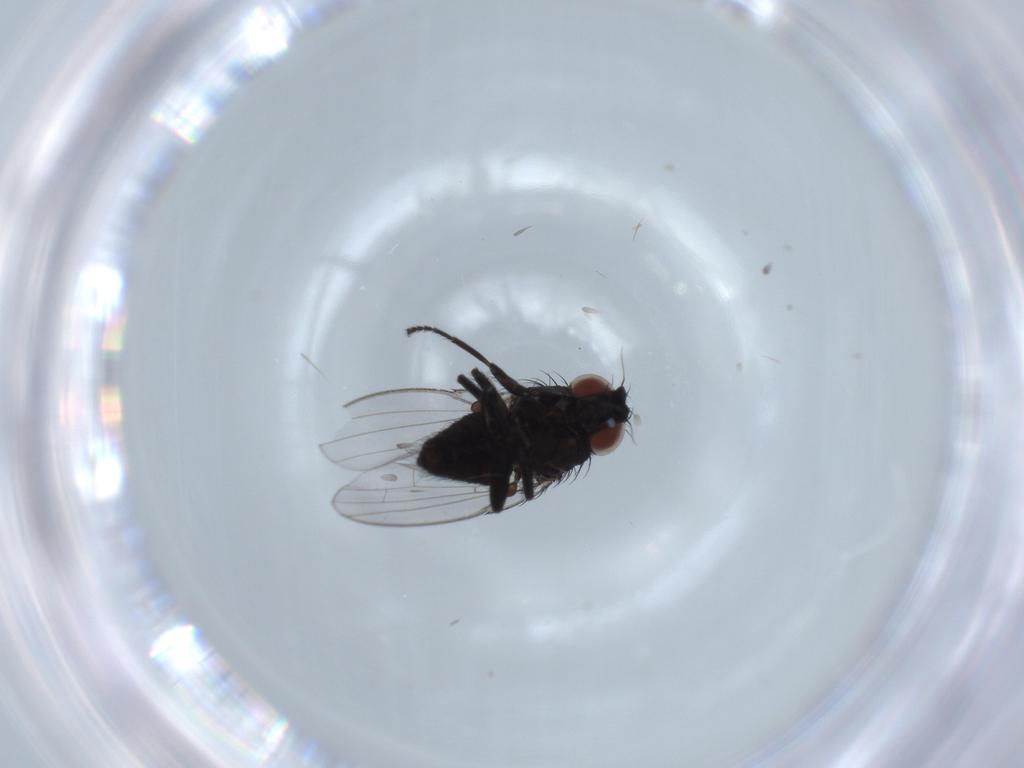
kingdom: Animalia
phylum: Arthropoda
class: Insecta
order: Diptera
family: Milichiidae
